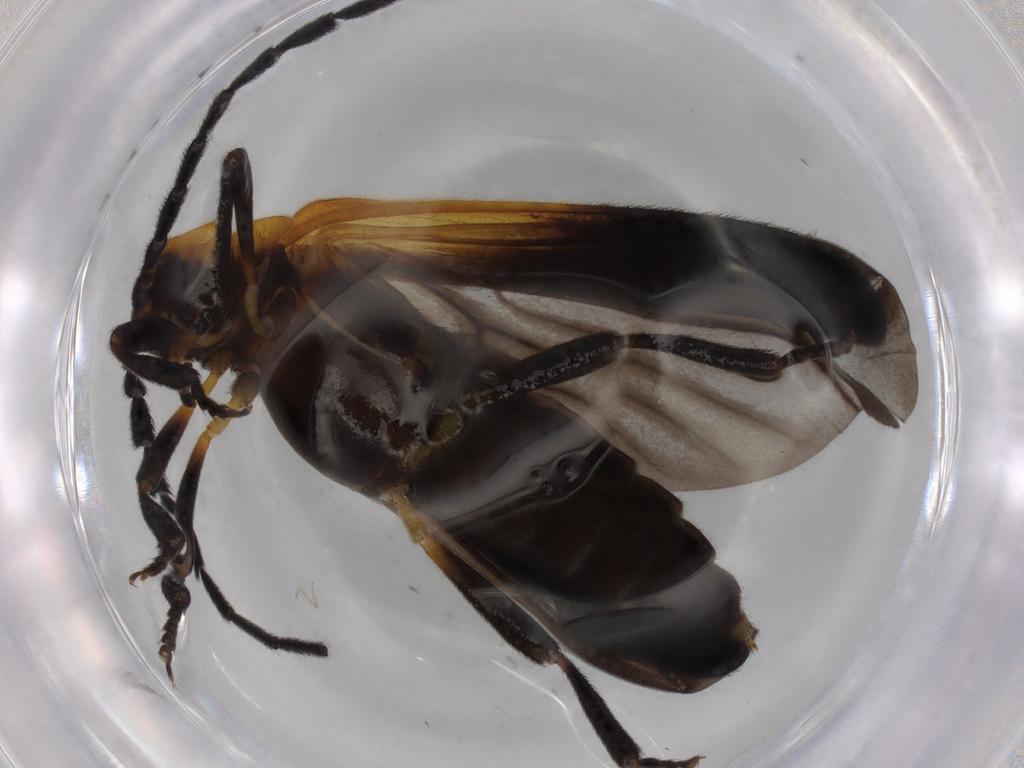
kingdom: Animalia
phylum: Arthropoda
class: Insecta
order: Coleoptera
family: Lycidae
